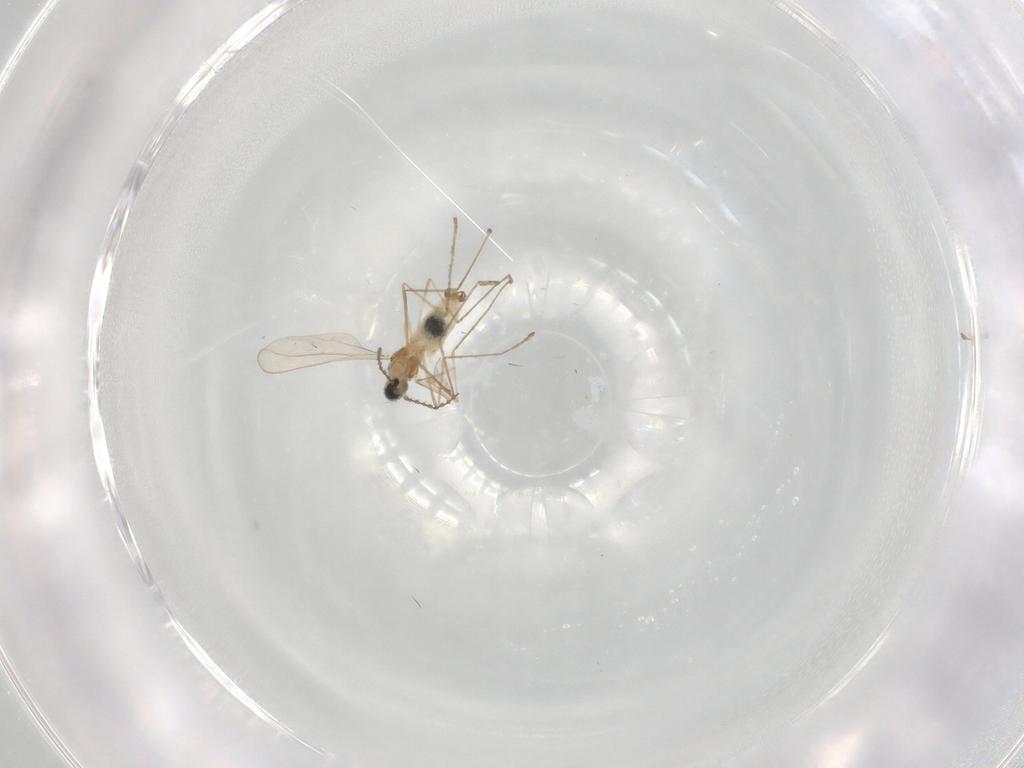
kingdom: Animalia
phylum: Arthropoda
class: Insecta
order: Diptera
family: Cecidomyiidae
